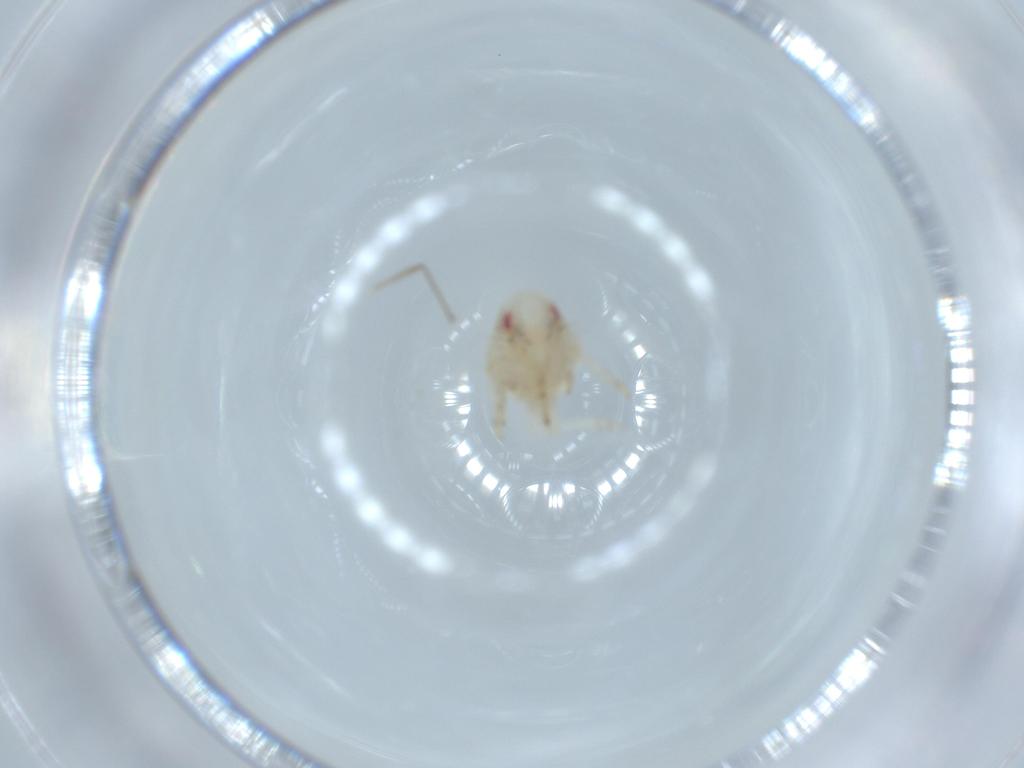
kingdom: Animalia
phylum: Arthropoda
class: Insecta
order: Hemiptera
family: Acanaloniidae
